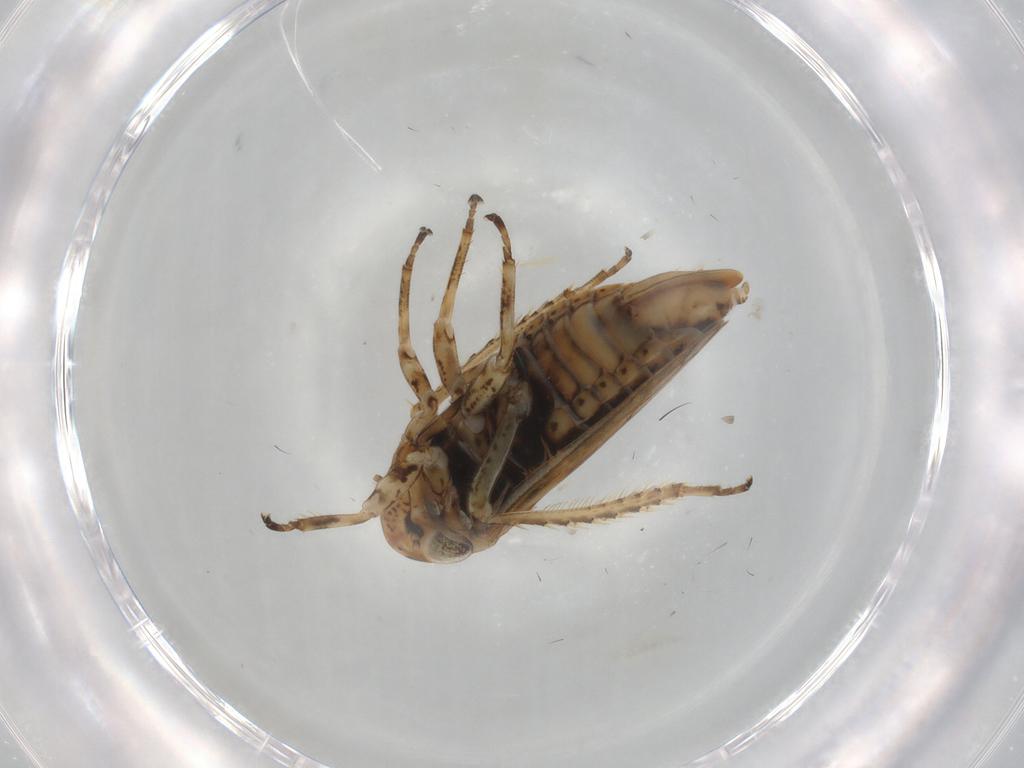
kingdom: Animalia
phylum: Arthropoda
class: Insecta
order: Hemiptera
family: Cicadellidae
